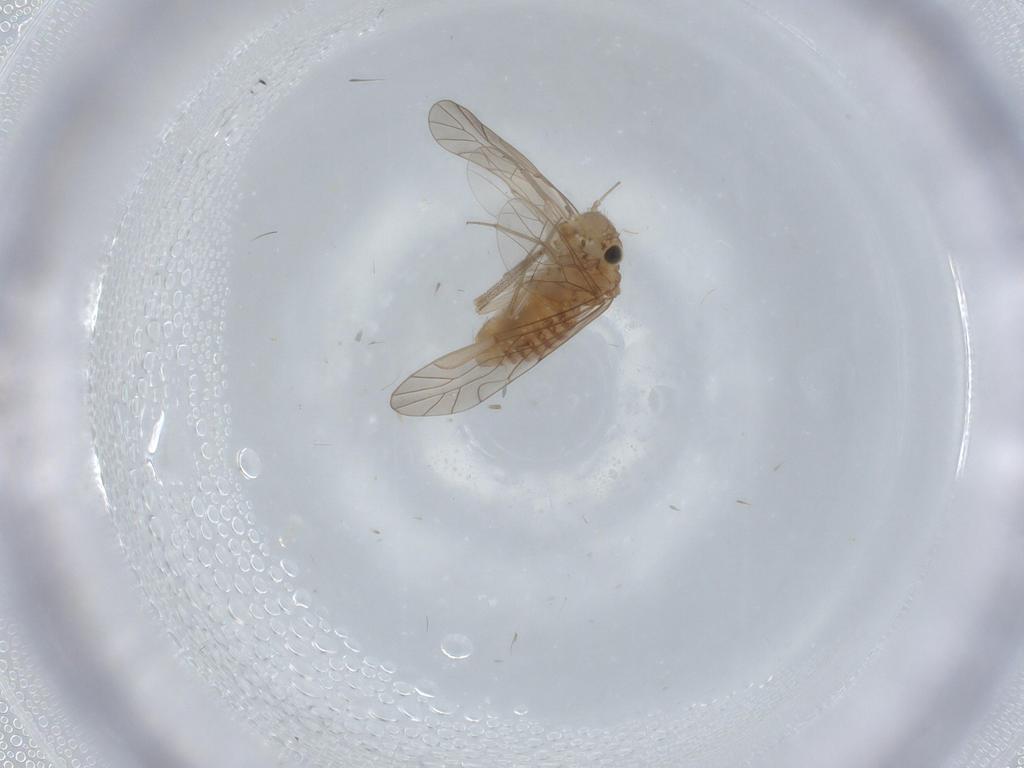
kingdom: Animalia
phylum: Arthropoda
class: Insecta
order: Psocodea
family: Lachesillidae
